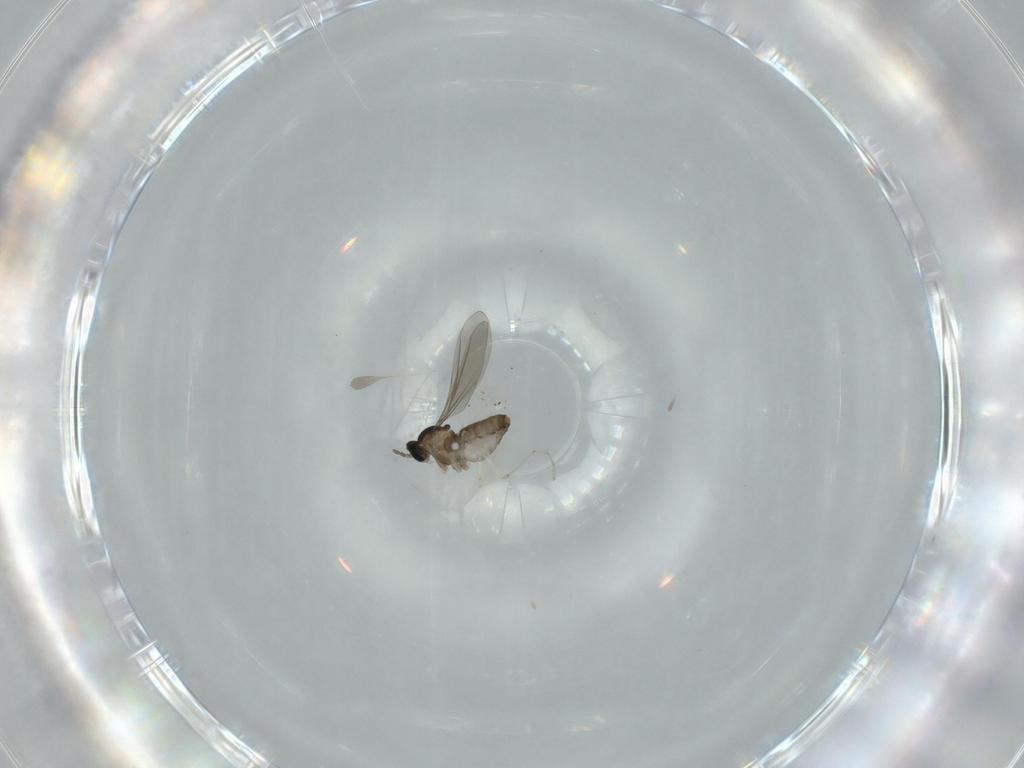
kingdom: Animalia
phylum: Arthropoda
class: Insecta
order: Diptera
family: Cecidomyiidae
